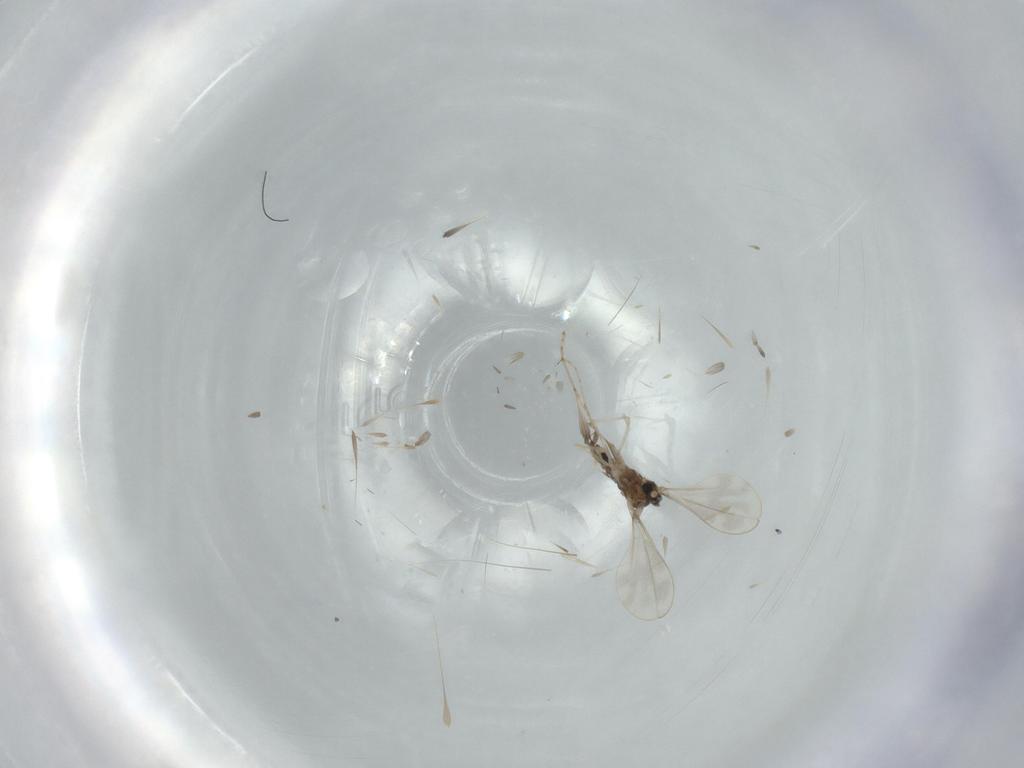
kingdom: Animalia
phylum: Arthropoda
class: Insecta
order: Diptera
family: Cecidomyiidae
